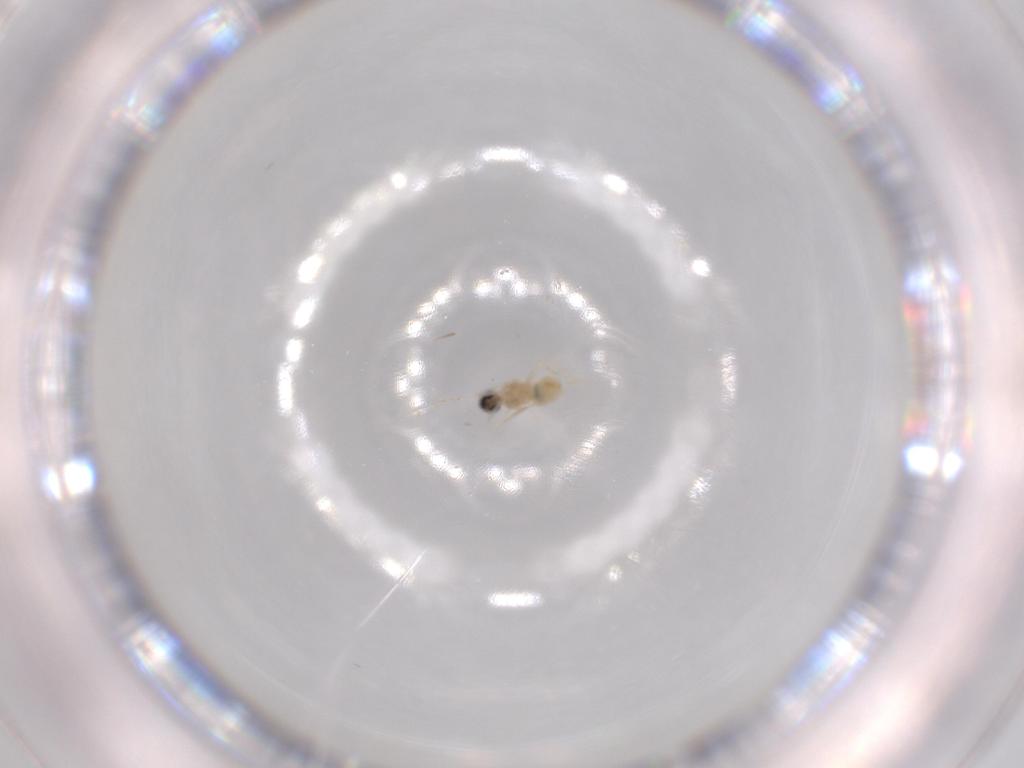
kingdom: Animalia
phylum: Arthropoda
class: Insecta
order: Diptera
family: Cecidomyiidae
